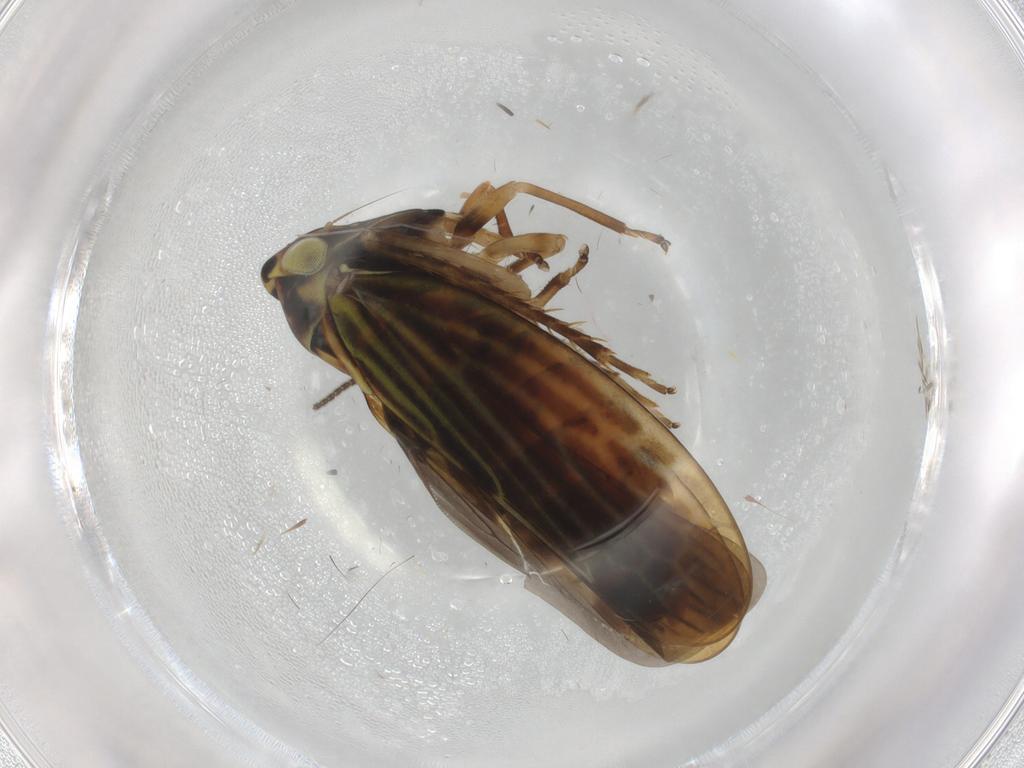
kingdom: Animalia
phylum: Arthropoda
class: Insecta
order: Hemiptera
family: Cicadellidae
